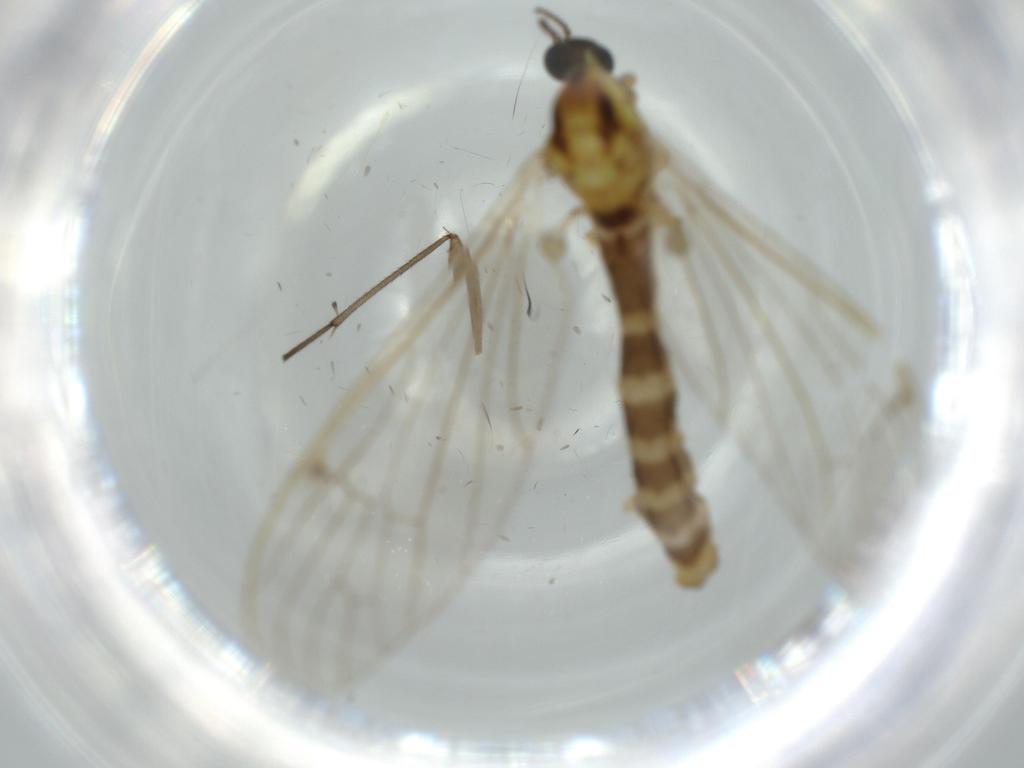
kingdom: Animalia
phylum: Arthropoda
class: Insecta
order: Diptera
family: Limoniidae
